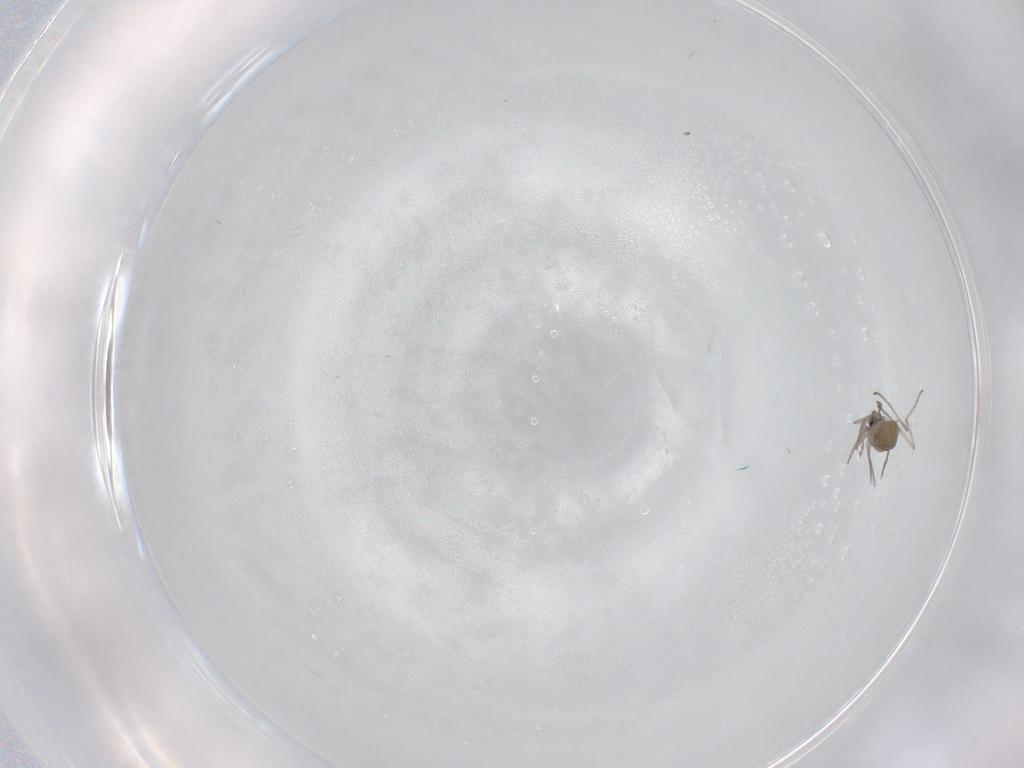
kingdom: Animalia
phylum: Arthropoda
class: Insecta
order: Diptera
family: Cecidomyiidae
